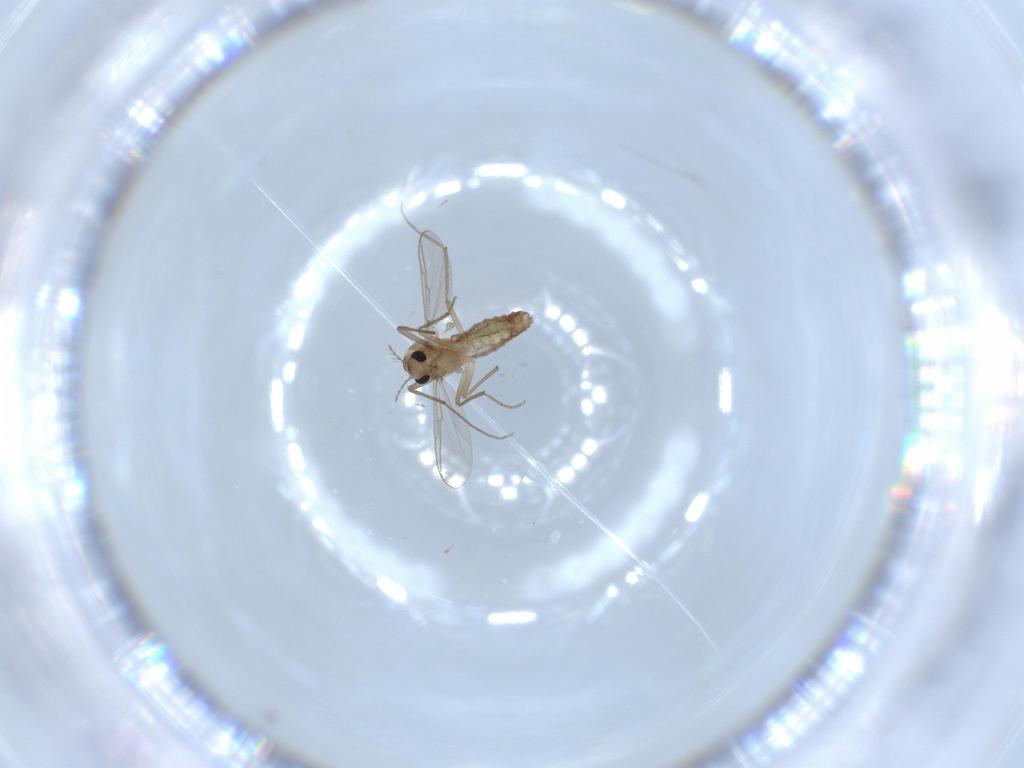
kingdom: Animalia
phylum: Arthropoda
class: Insecta
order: Diptera
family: Chironomidae
